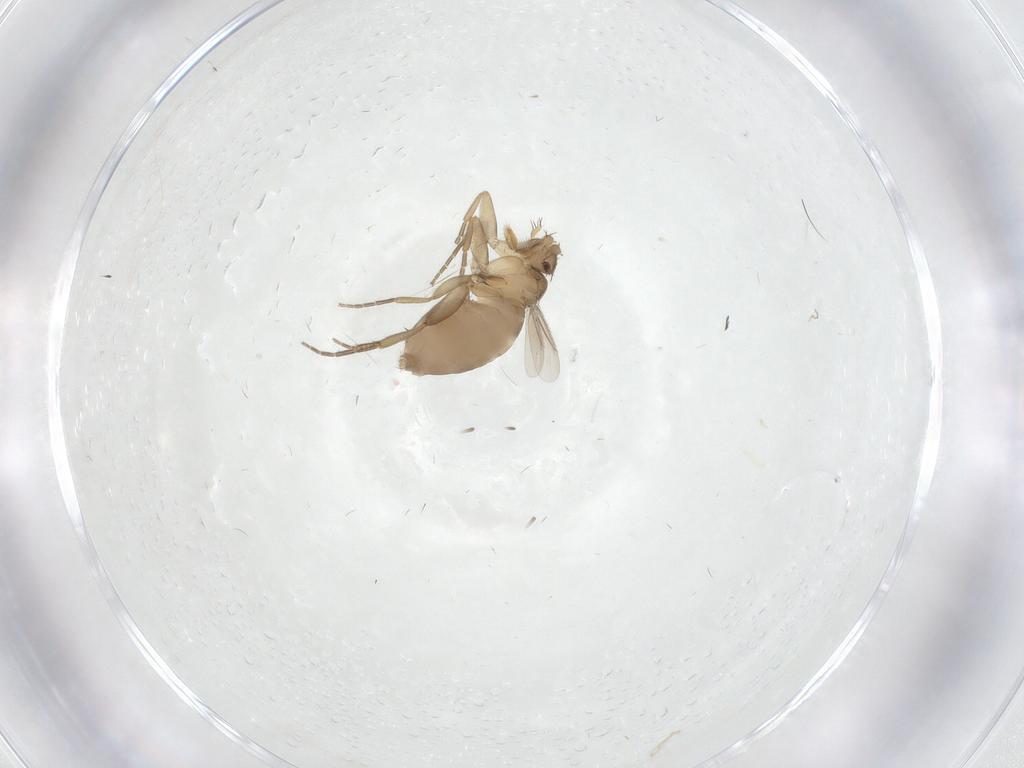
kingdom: Animalia
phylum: Arthropoda
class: Insecta
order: Diptera
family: Phoridae
